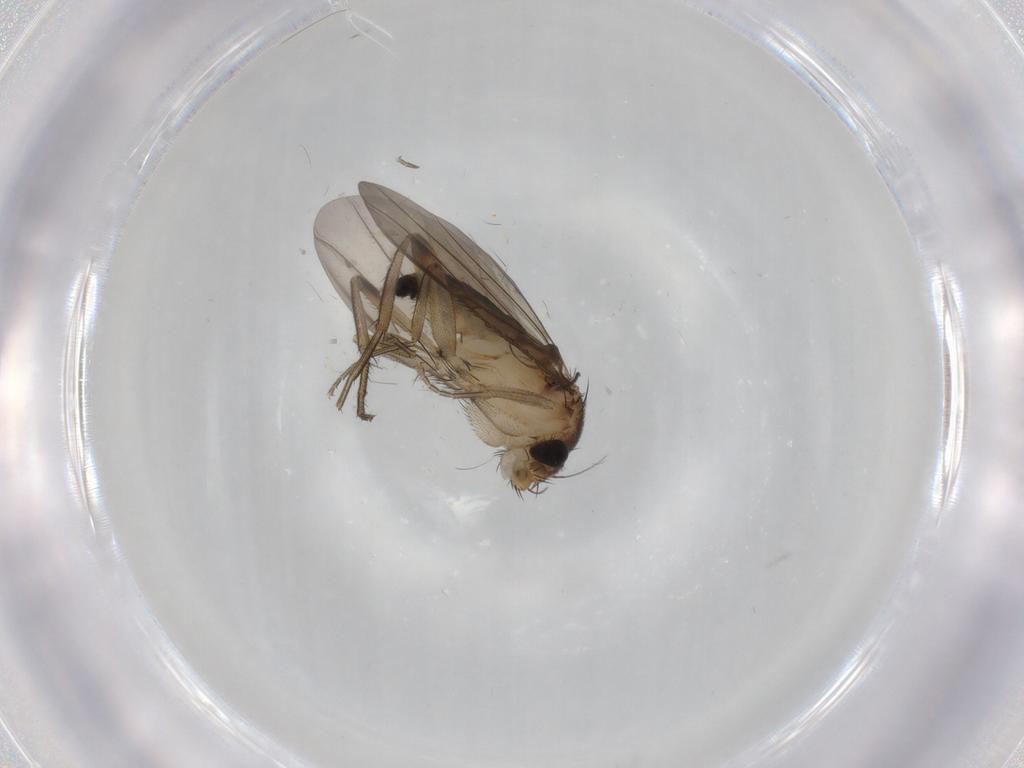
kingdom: Animalia
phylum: Arthropoda
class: Insecta
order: Diptera
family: Phoridae
